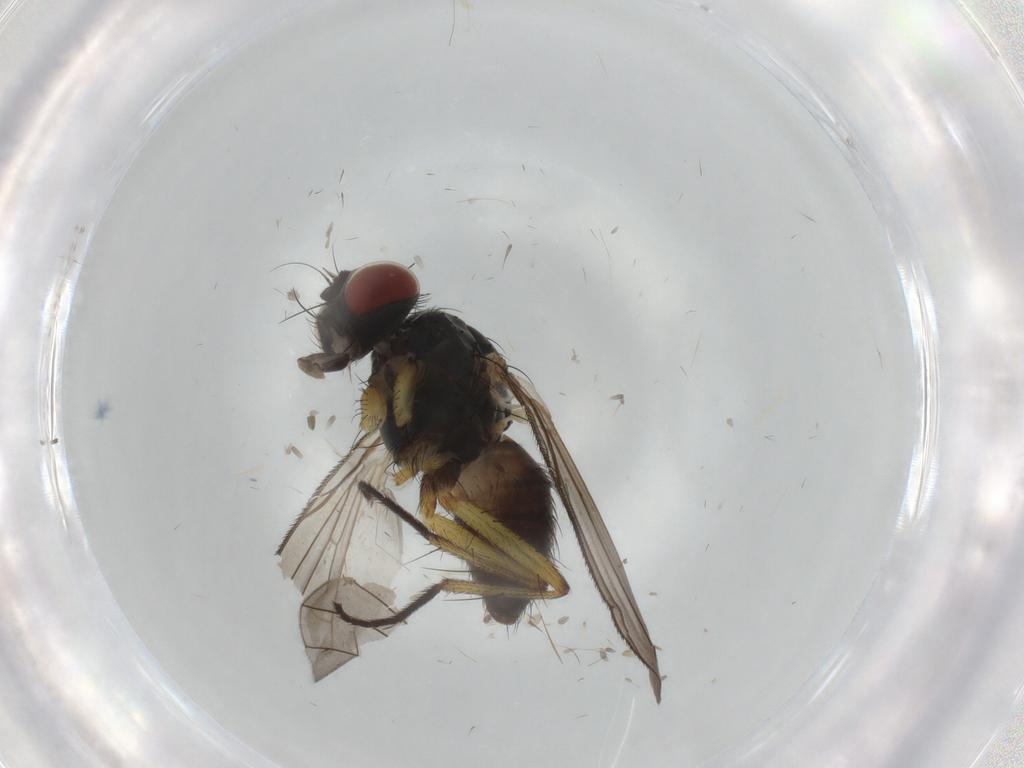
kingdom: Animalia
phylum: Arthropoda
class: Insecta
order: Diptera
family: Muscidae
